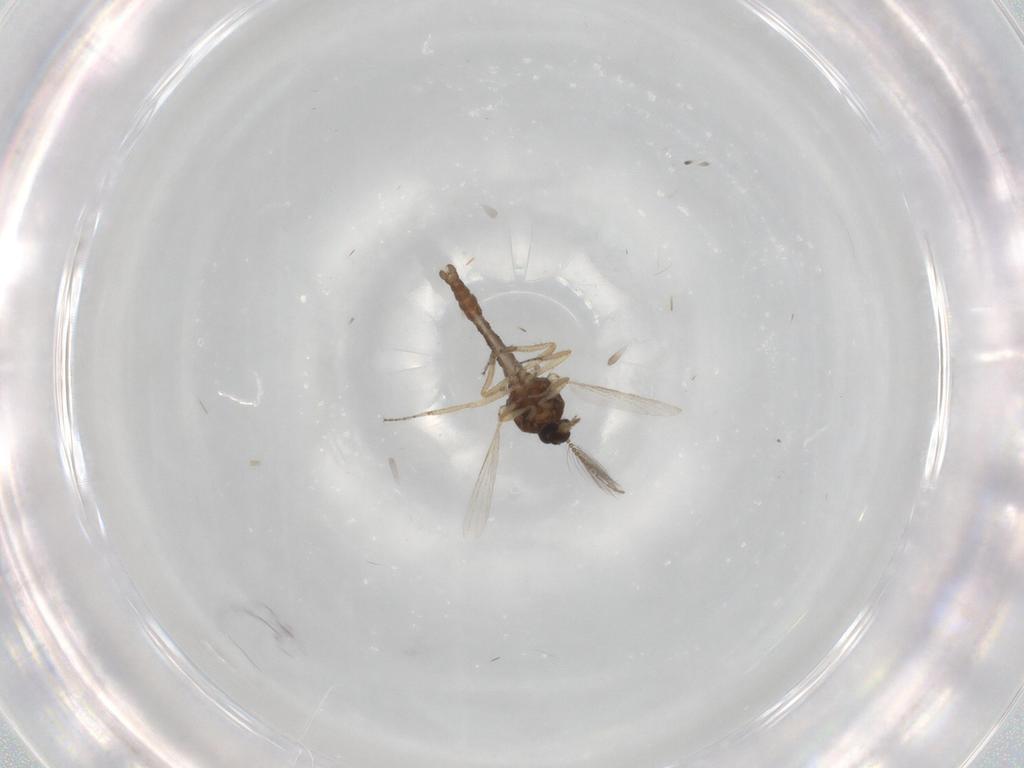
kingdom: Animalia
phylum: Arthropoda
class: Insecta
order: Diptera
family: Ceratopogonidae
